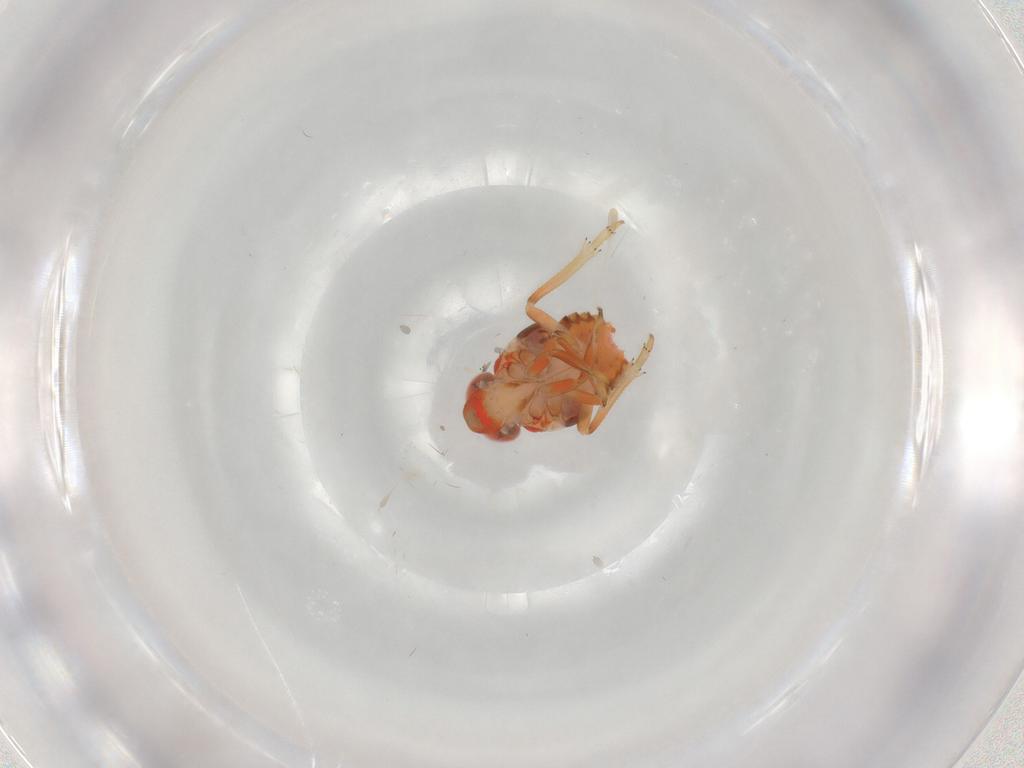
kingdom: Animalia
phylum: Arthropoda
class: Insecta
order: Hemiptera
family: Issidae
